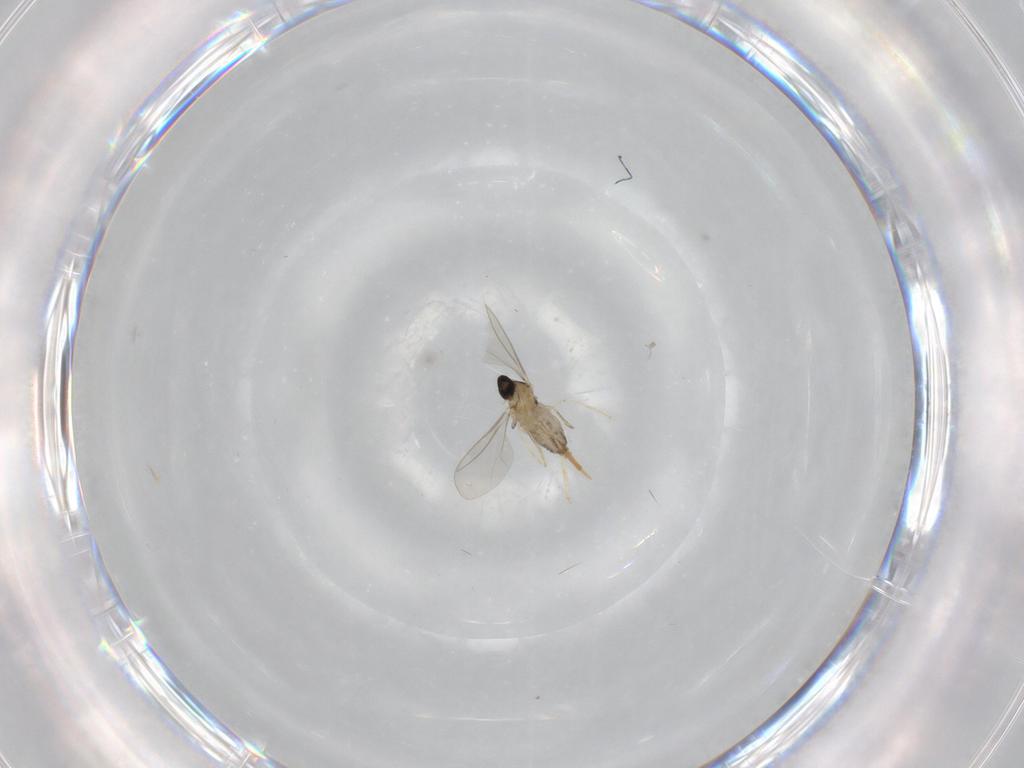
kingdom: Animalia
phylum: Arthropoda
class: Insecta
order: Diptera
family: Cecidomyiidae
